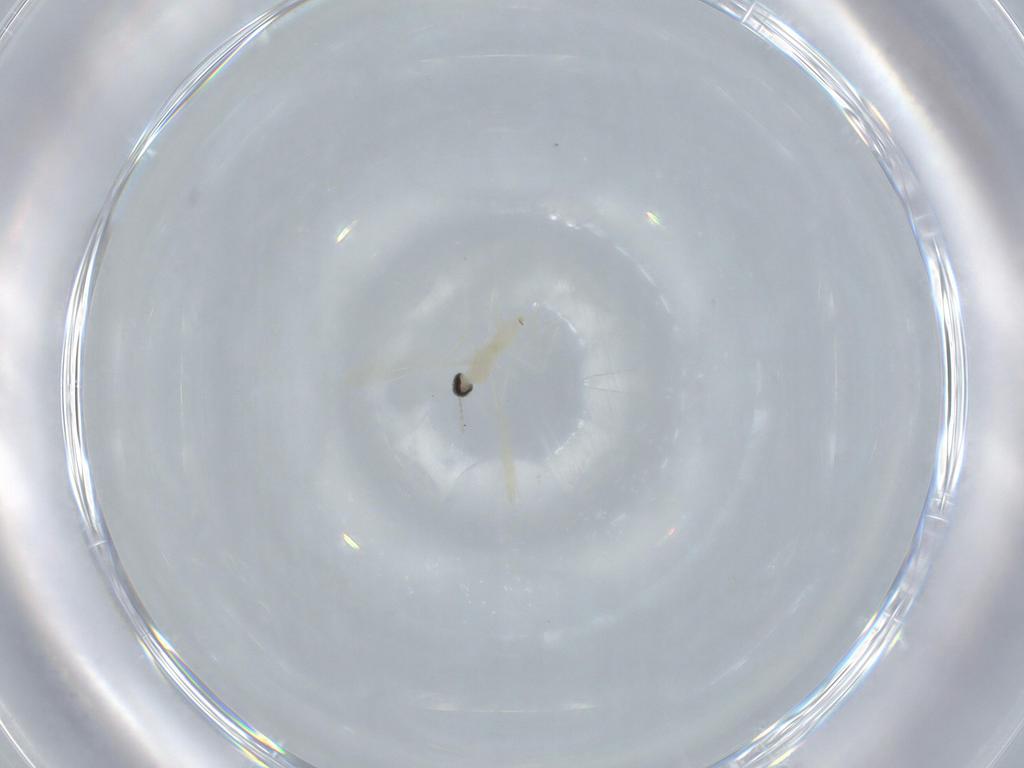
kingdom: Animalia
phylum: Arthropoda
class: Insecta
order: Diptera
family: Cecidomyiidae
